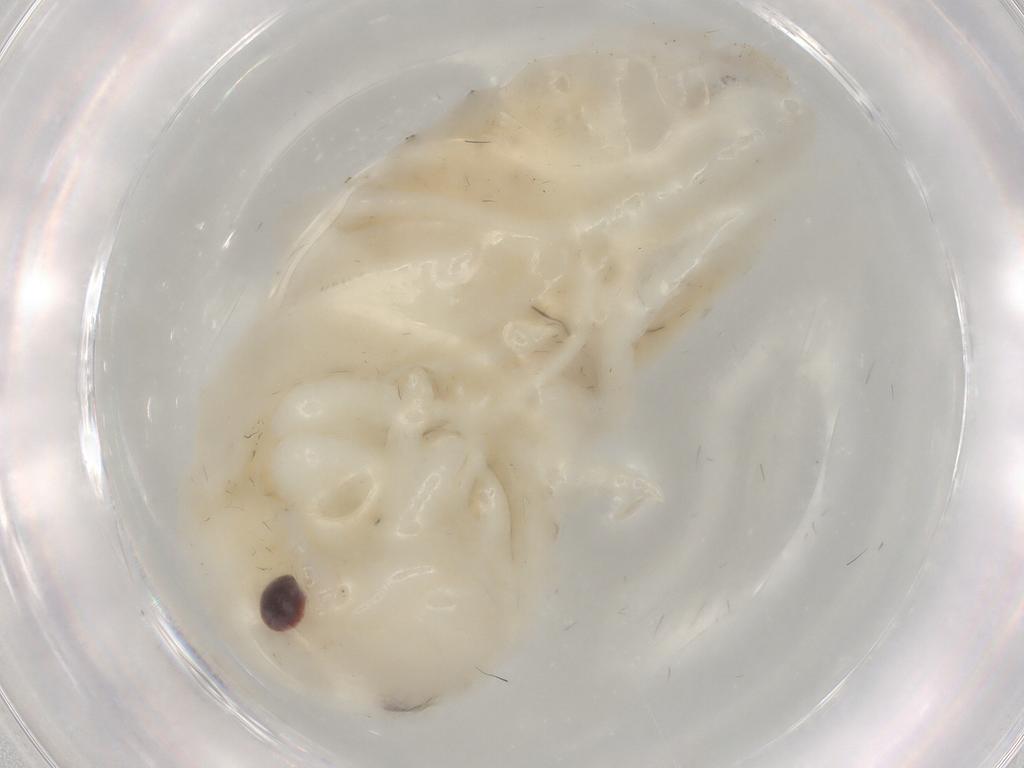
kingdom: Animalia
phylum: Arthropoda
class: Insecta
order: Coleoptera
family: Carabidae
